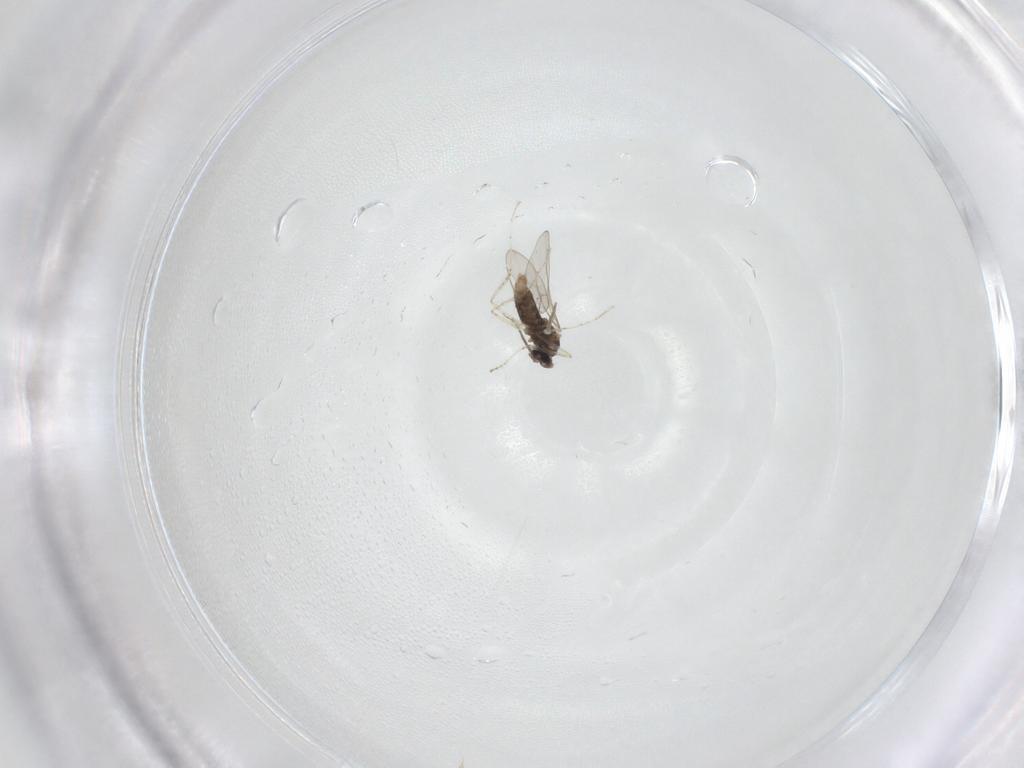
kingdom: Animalia
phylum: Arthropoda
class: Insecta
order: Diptera
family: Cecidomyiidae
